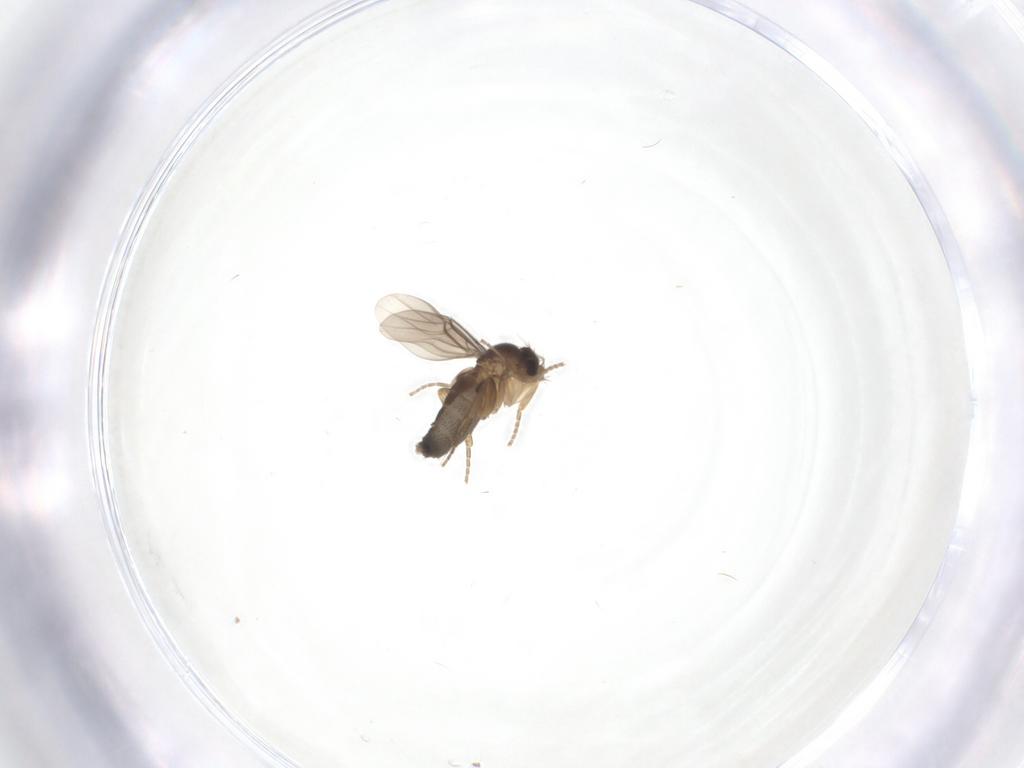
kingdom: Animalia
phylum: Arthropoda
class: Insecta
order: Diptera
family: Phoridae
